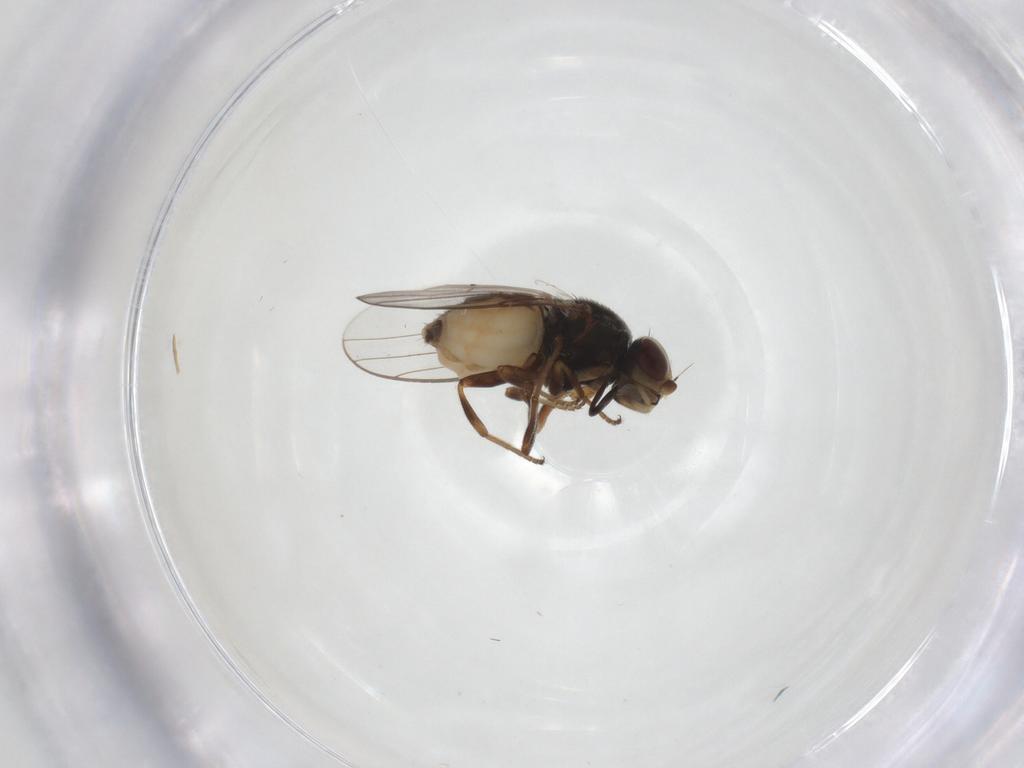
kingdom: Animalia
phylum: Arthropoda
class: Insecta
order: Diptera
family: Chloropidae
